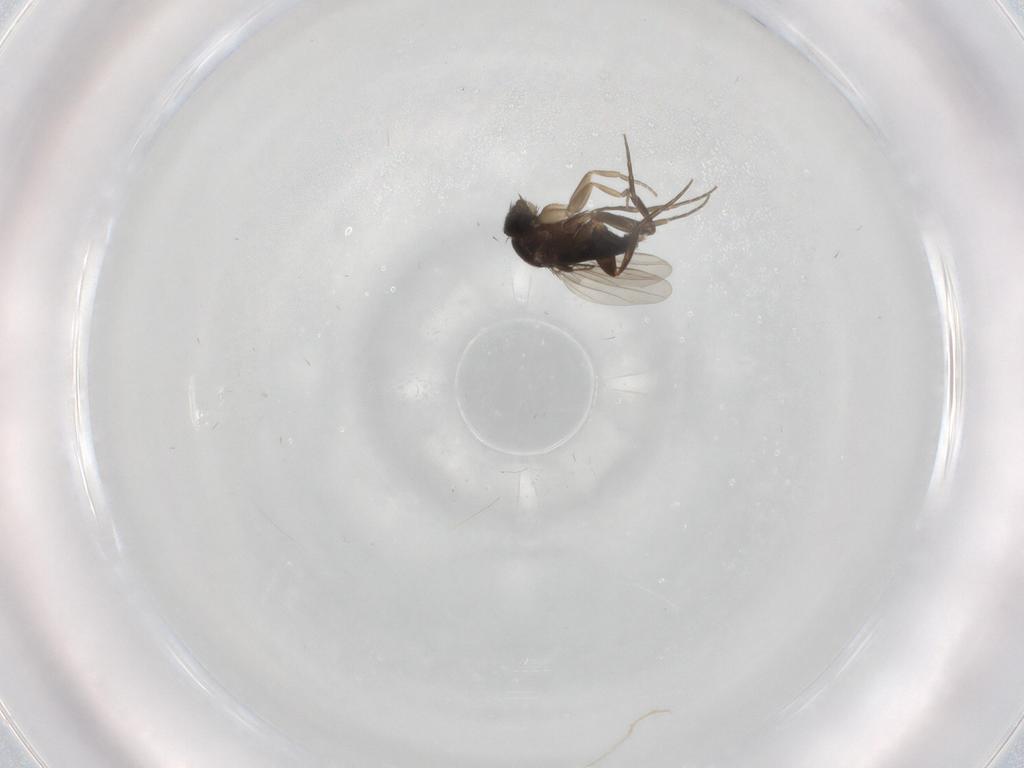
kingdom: Animalia
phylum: Arthropoda
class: Insecta
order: Diptera
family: Phoridae
